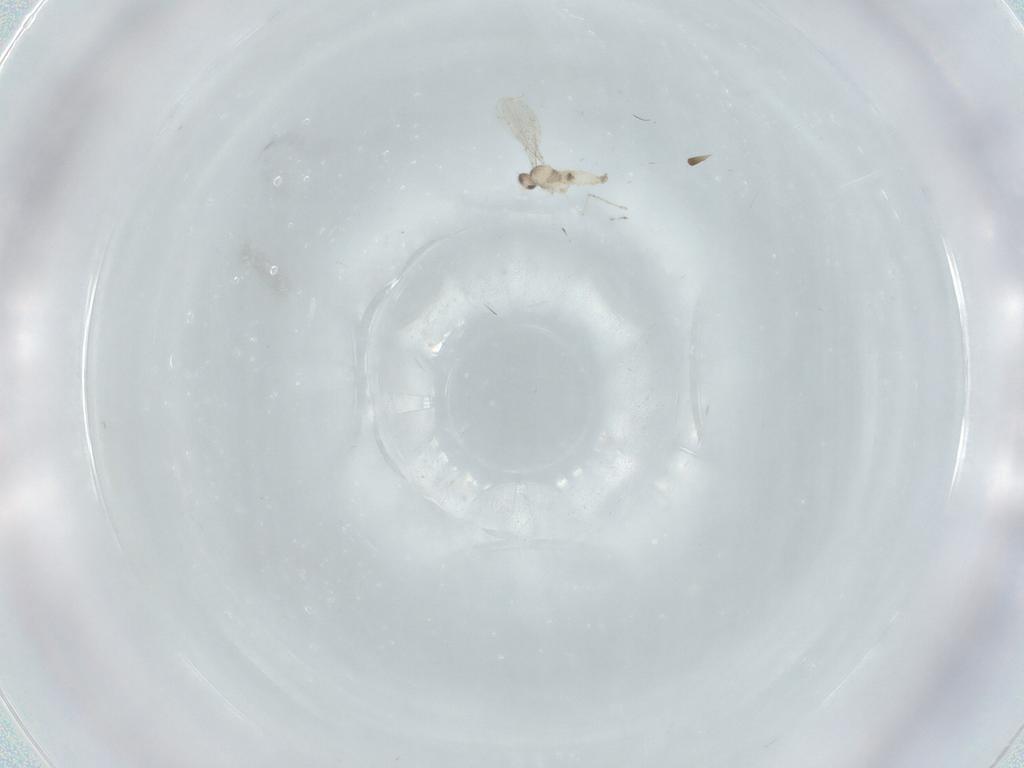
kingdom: Animalia
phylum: Arthropoda
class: Insecta
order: Diptera
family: Cecidomyiidae
